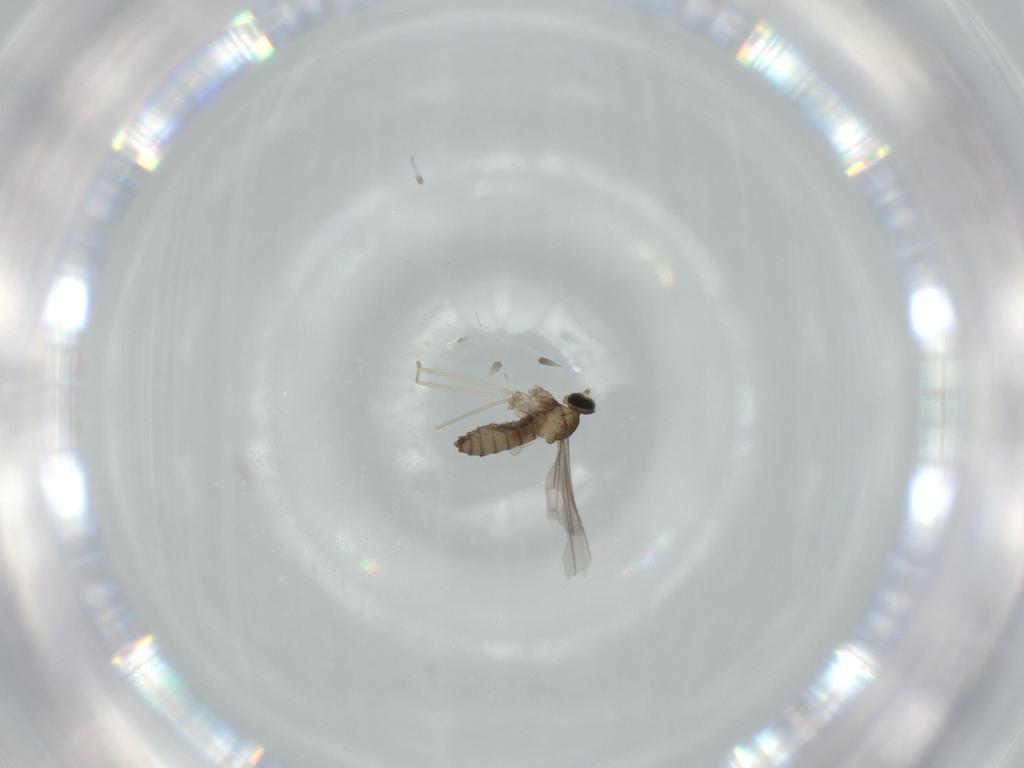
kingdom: Animalia
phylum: Arthropoda
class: Insecta
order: Diptera
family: Cecidomyiidae
